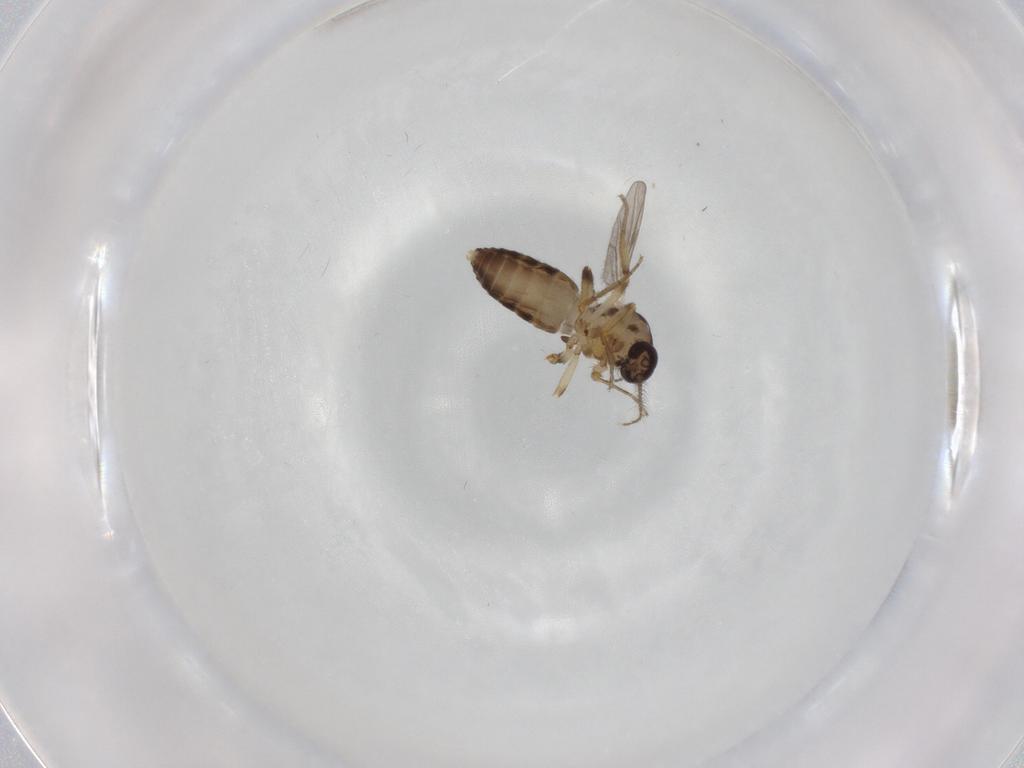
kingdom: Animalia
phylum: Arthropoda
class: Insecta
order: Diptera
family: Ceratopogonidae
